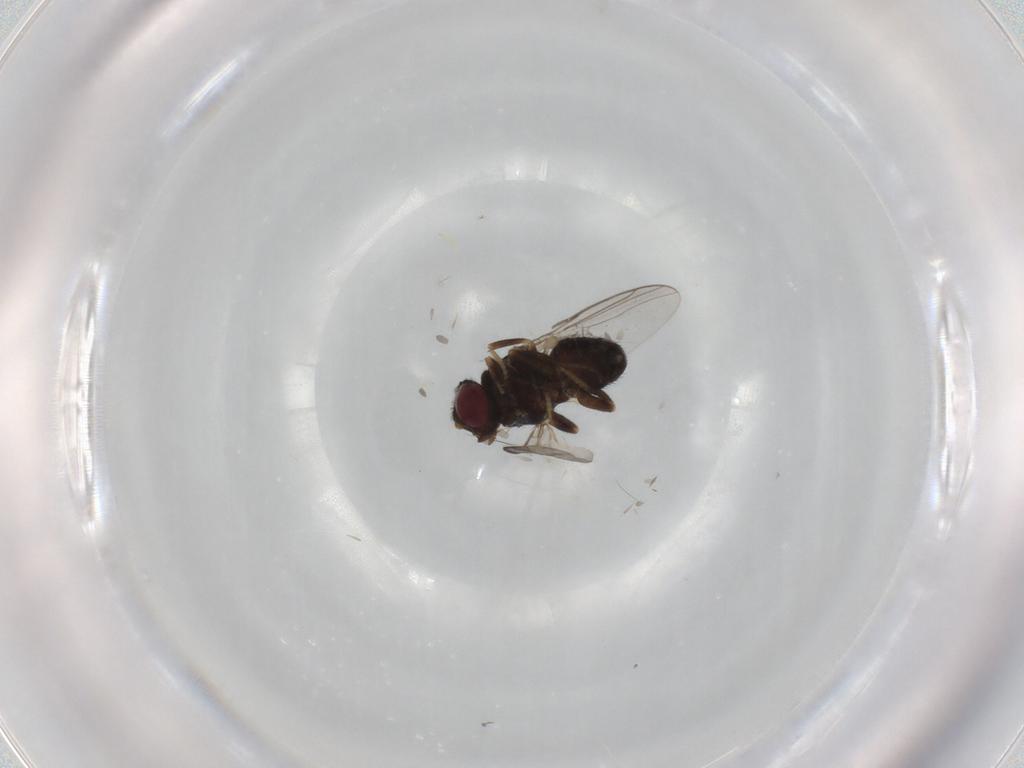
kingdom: Animalia
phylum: Arthropoda
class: Insecta
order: Diptera
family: Chloropidae
